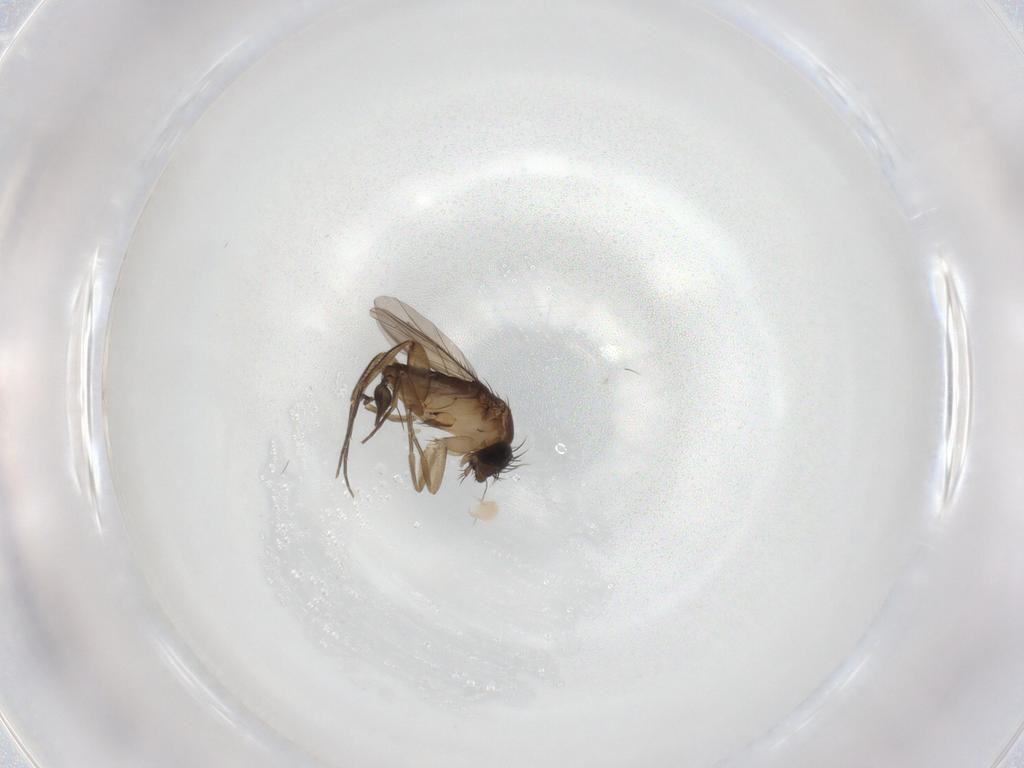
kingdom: Animalia
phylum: Arthropoda
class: Insecta
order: Diptera
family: Phoridae
